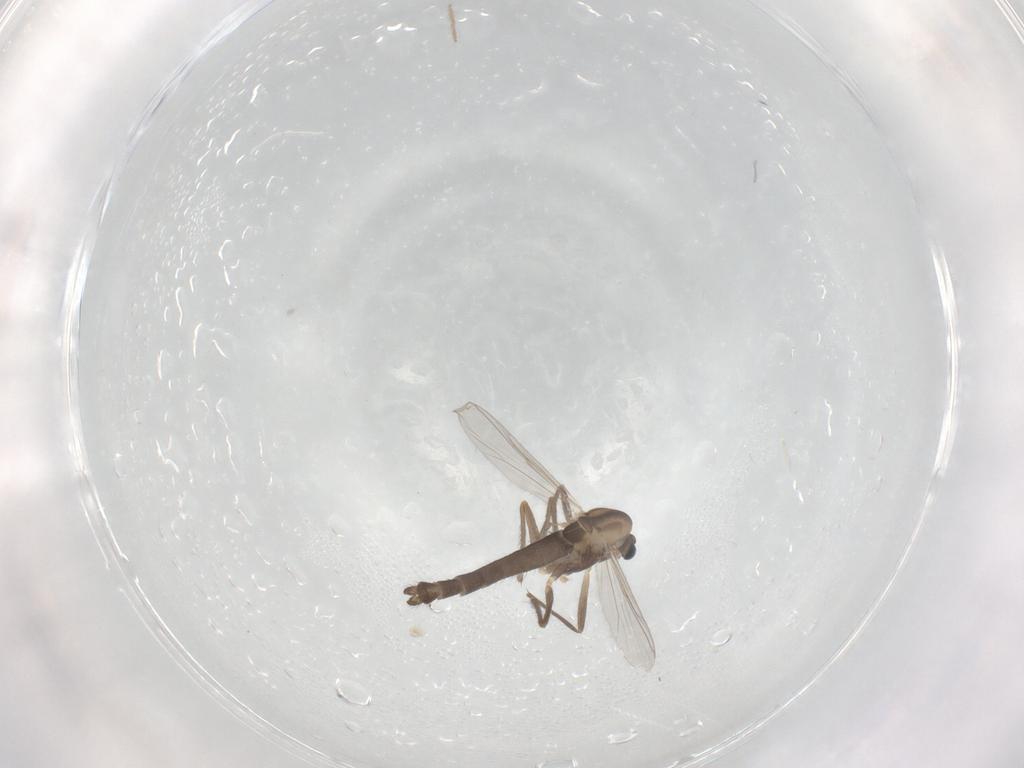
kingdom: Animalia
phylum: Arthropoda
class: Insecta
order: Diptera
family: Chironomidae
